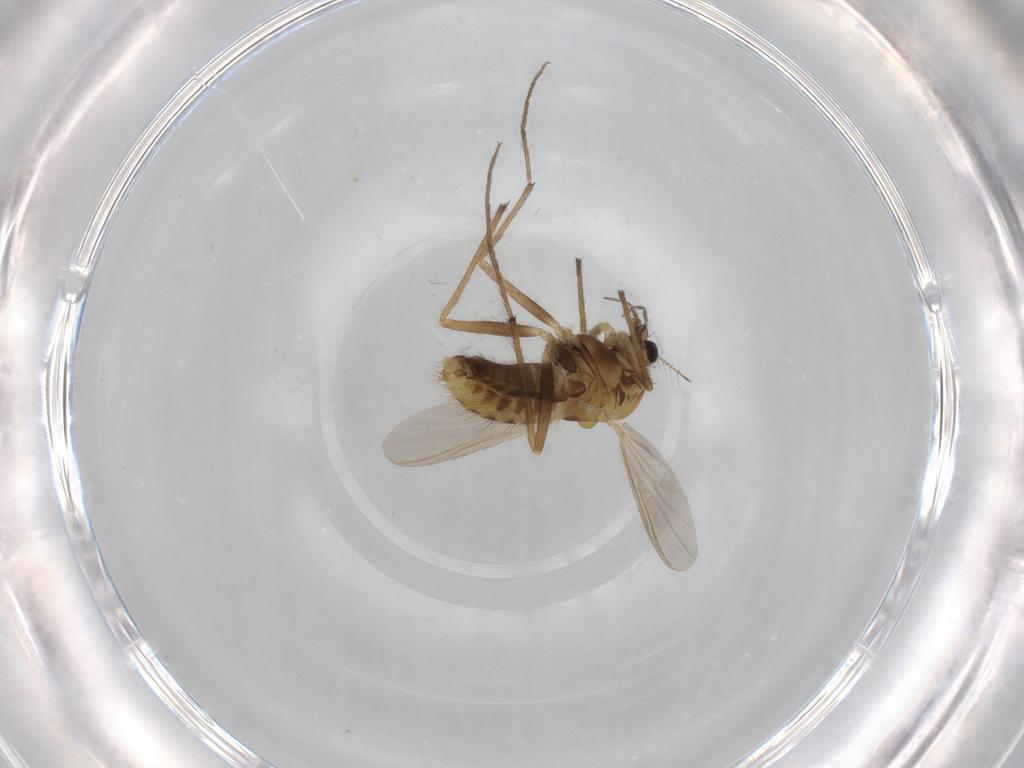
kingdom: Animalia
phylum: Arthropoda
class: Insecta
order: Diptera
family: Chironomidae
